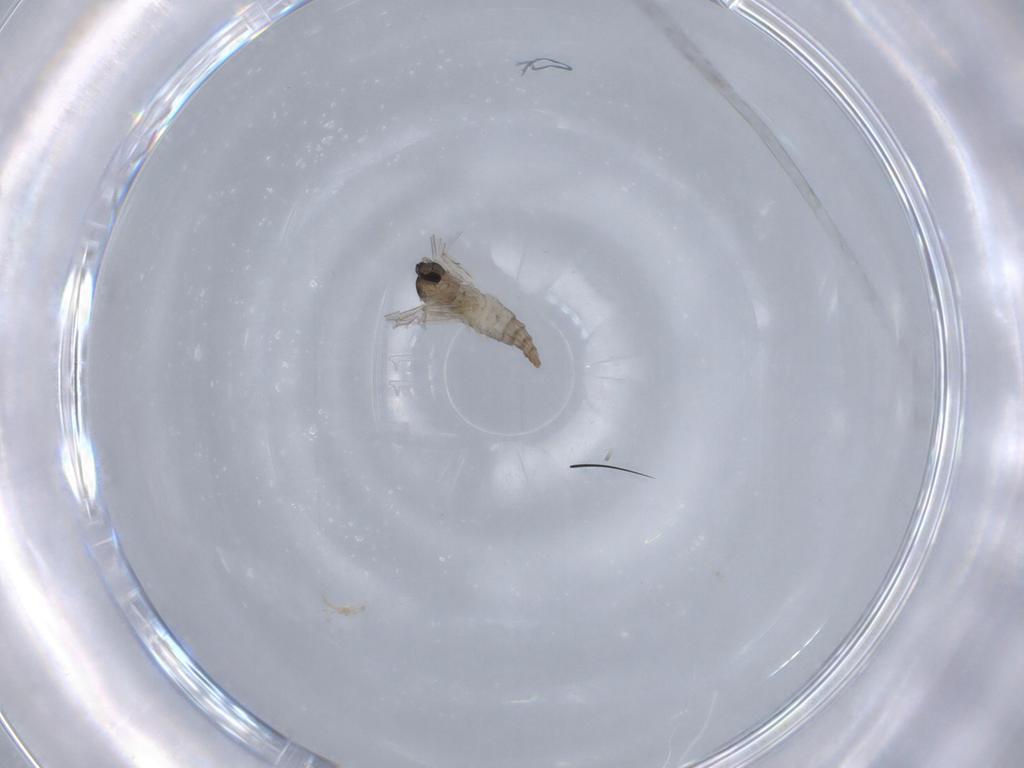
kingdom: Animalia
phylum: Arthropoda
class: Insecta
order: Diptera
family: Cecidomyiidae
